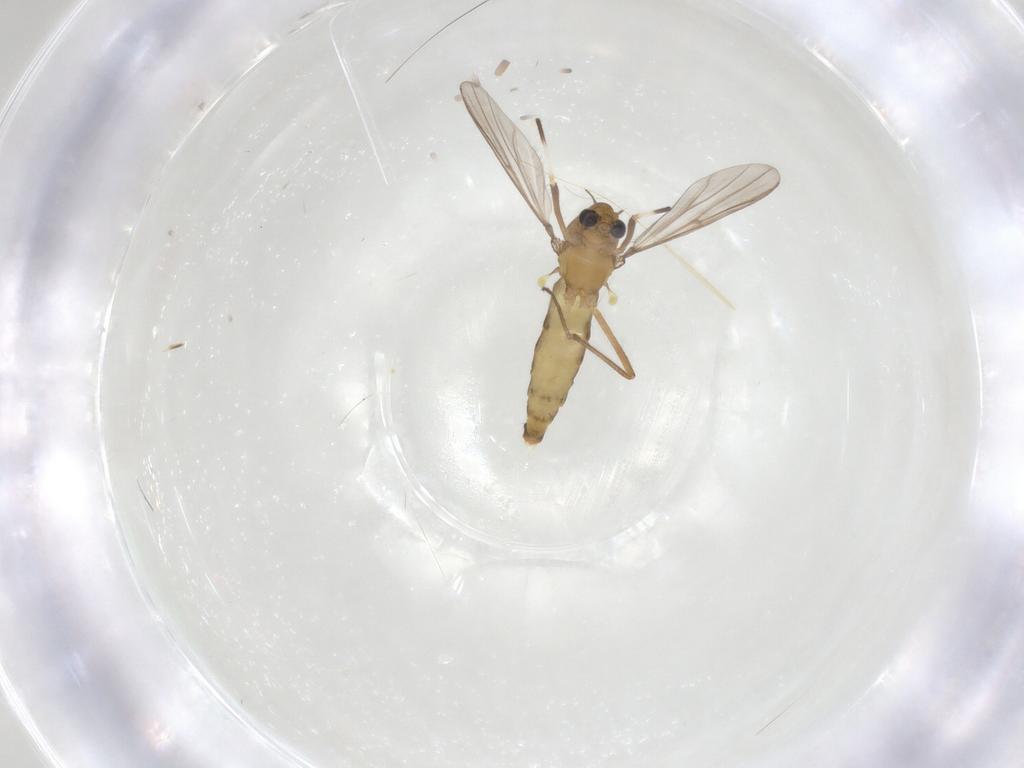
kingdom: Animalia
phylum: Arthropoda
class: Insecta
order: Diptera
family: Chironomidae
